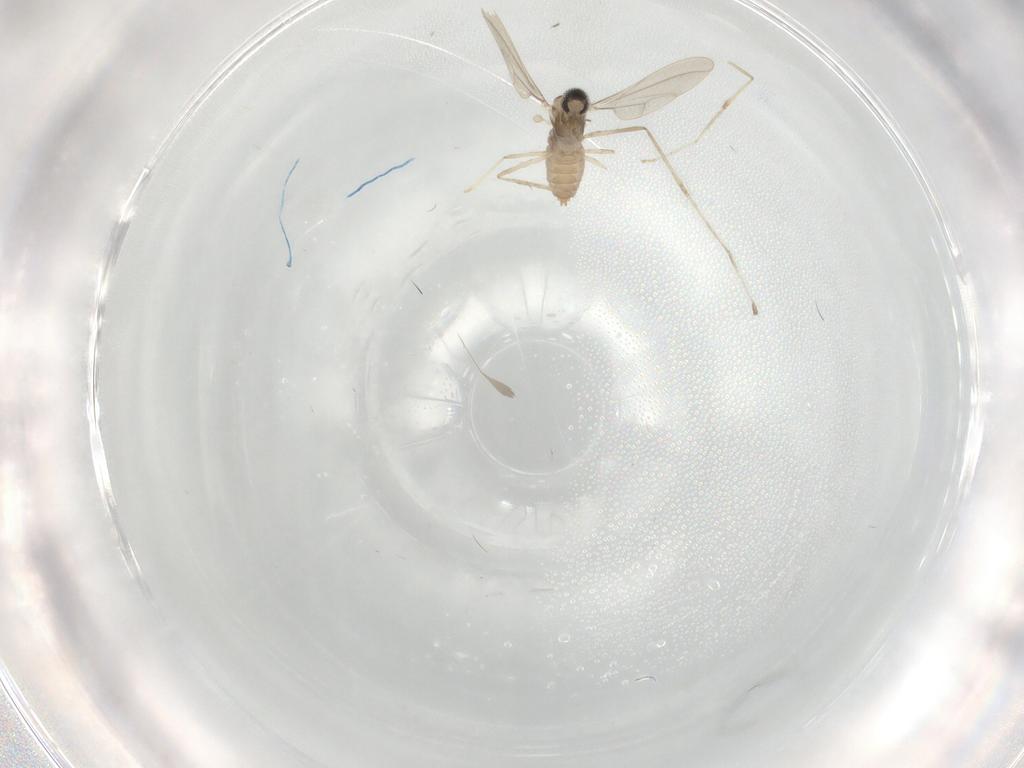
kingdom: Animalia
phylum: Arthropoda
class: Insecta
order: Diptera
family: Cecidomyiidae
